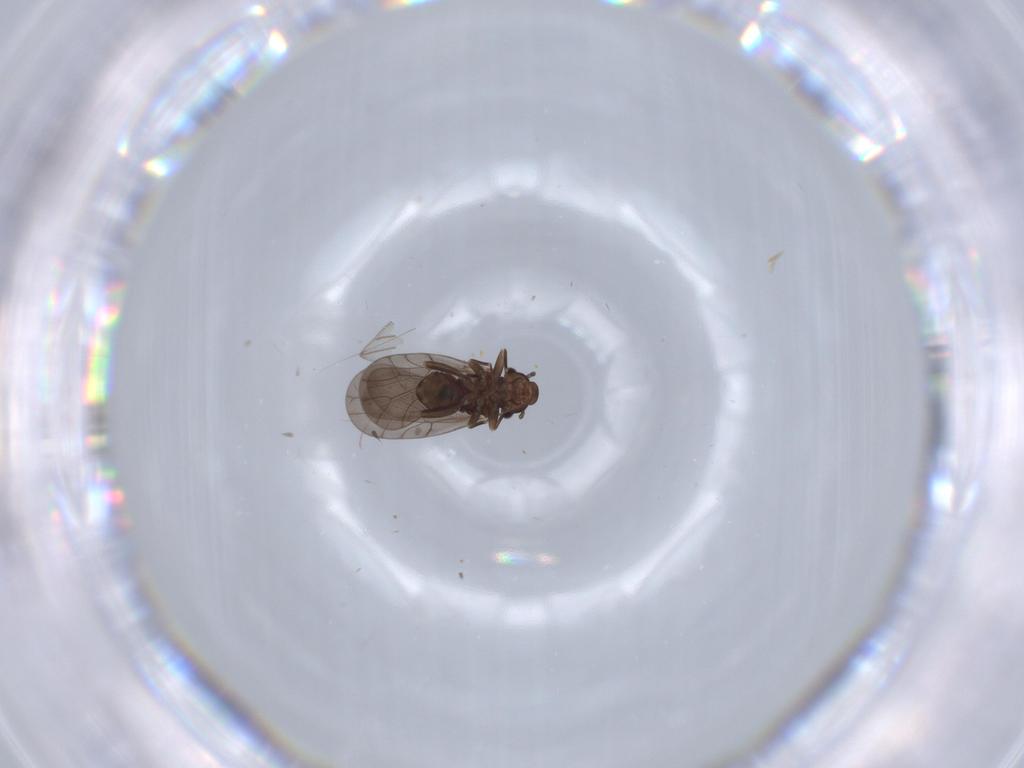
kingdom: Animalia
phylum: Arthropoda
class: Insecta
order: Psocodea
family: Lepidopsocidae
